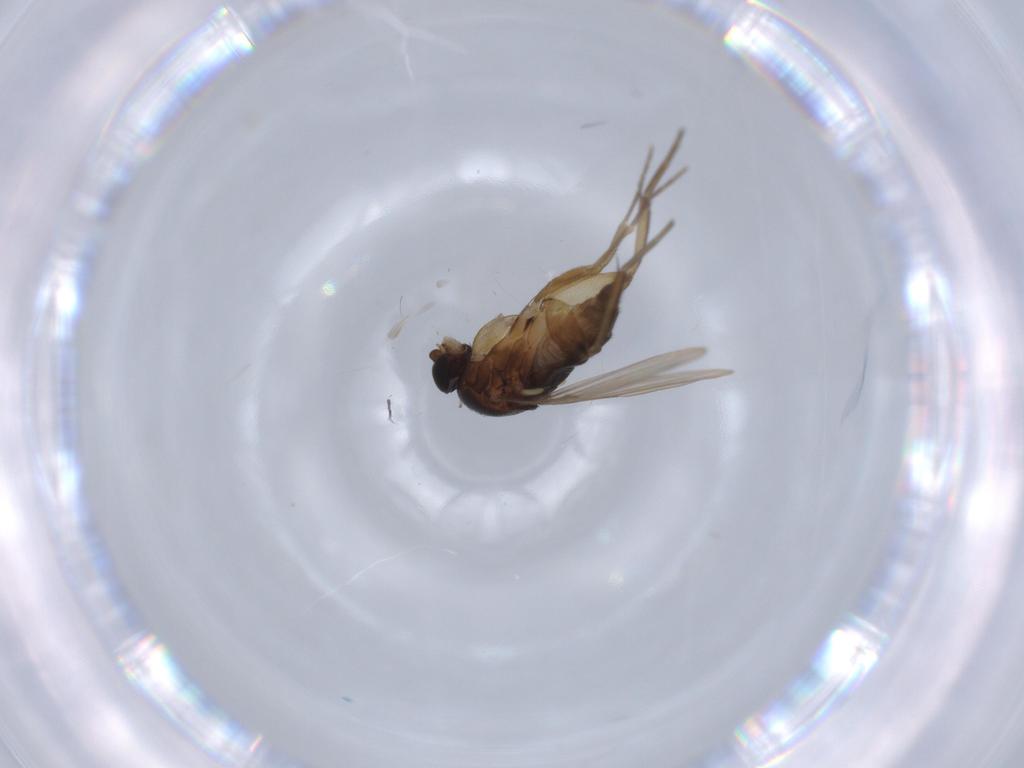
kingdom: Animalia
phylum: Arthropoda
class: Insecta
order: Diptera
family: Muscidae
